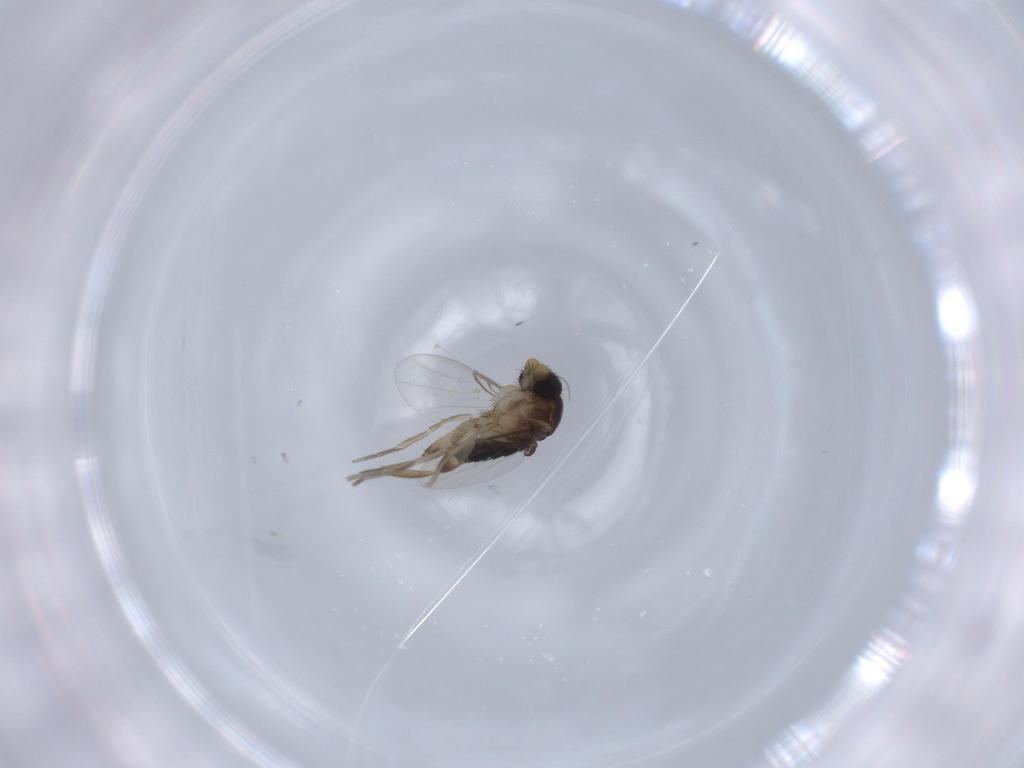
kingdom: Animalia
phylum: Arthropoda
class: Insecta
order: Diptera
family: Phoridae
